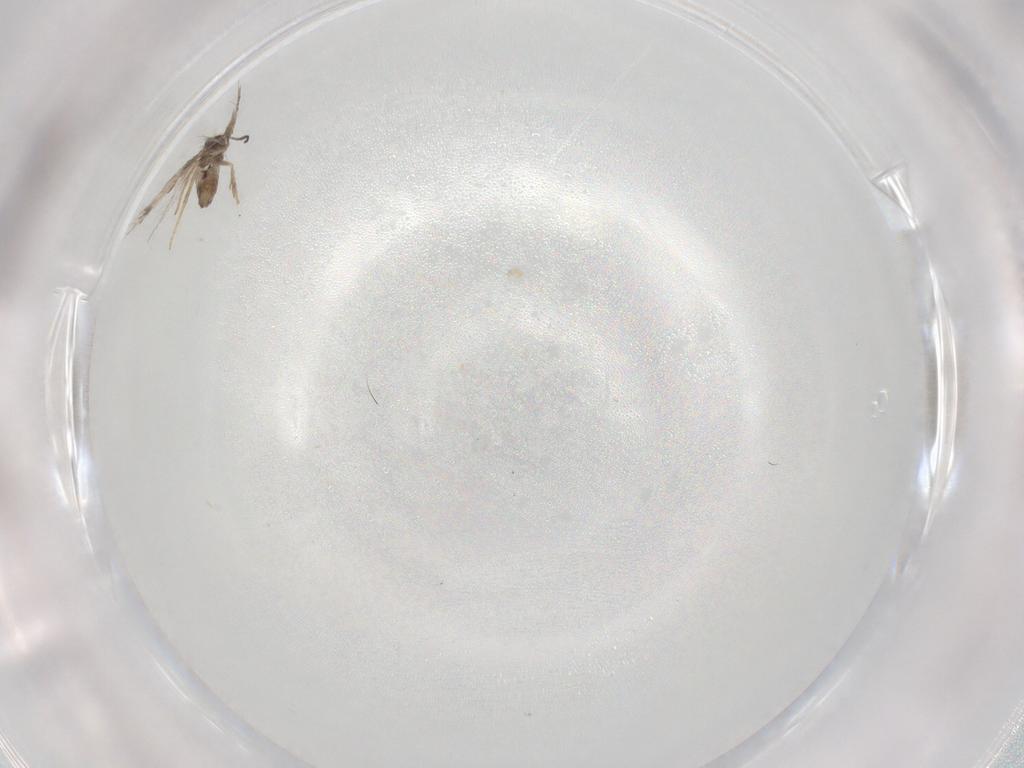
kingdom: Animalia
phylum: Arthropoda
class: Insecta
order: Lepidoptera
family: Nepticulidae
